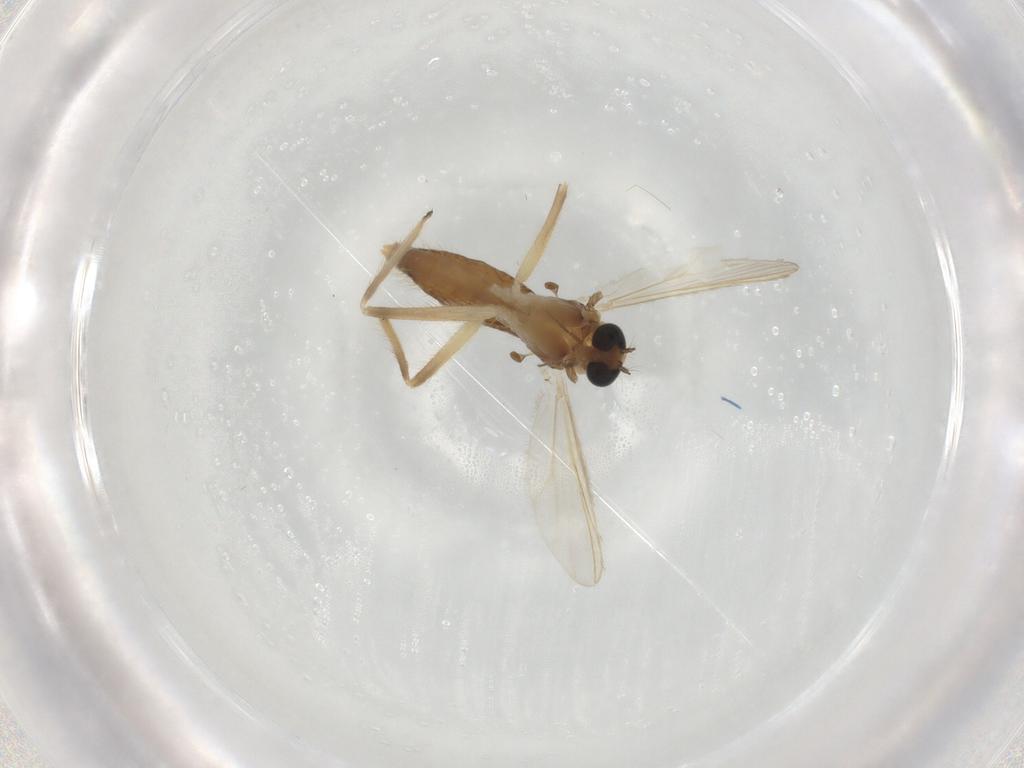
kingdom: Animalia
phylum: Arthropoda
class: Insecta
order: Diptera
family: Chironomidae
